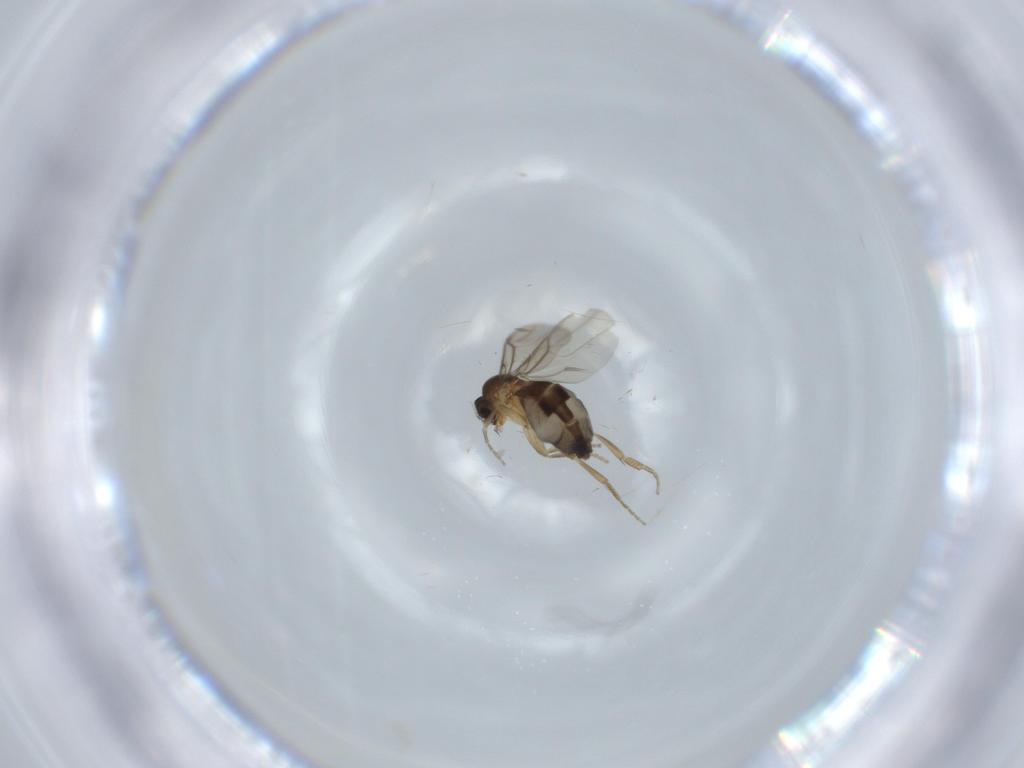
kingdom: Animalia
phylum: Arthropoda
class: Insecta
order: Diptera
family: Phoridae
